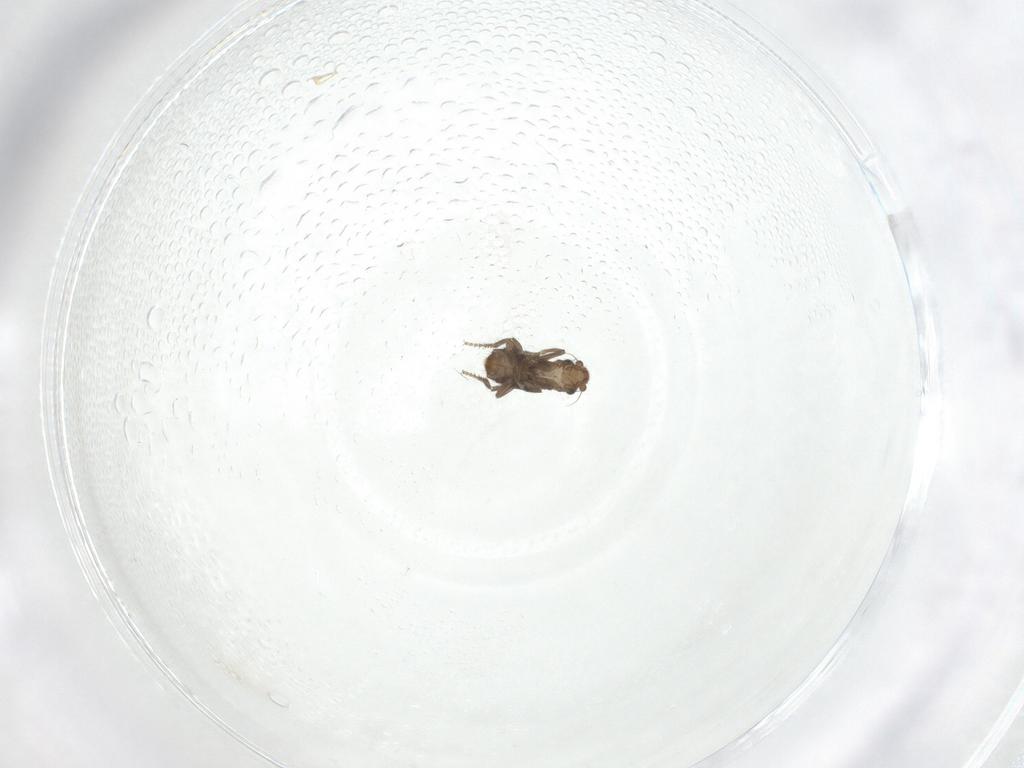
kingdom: Animalia
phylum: Arthropoda
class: Insecta
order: Diptera
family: Phoridae
